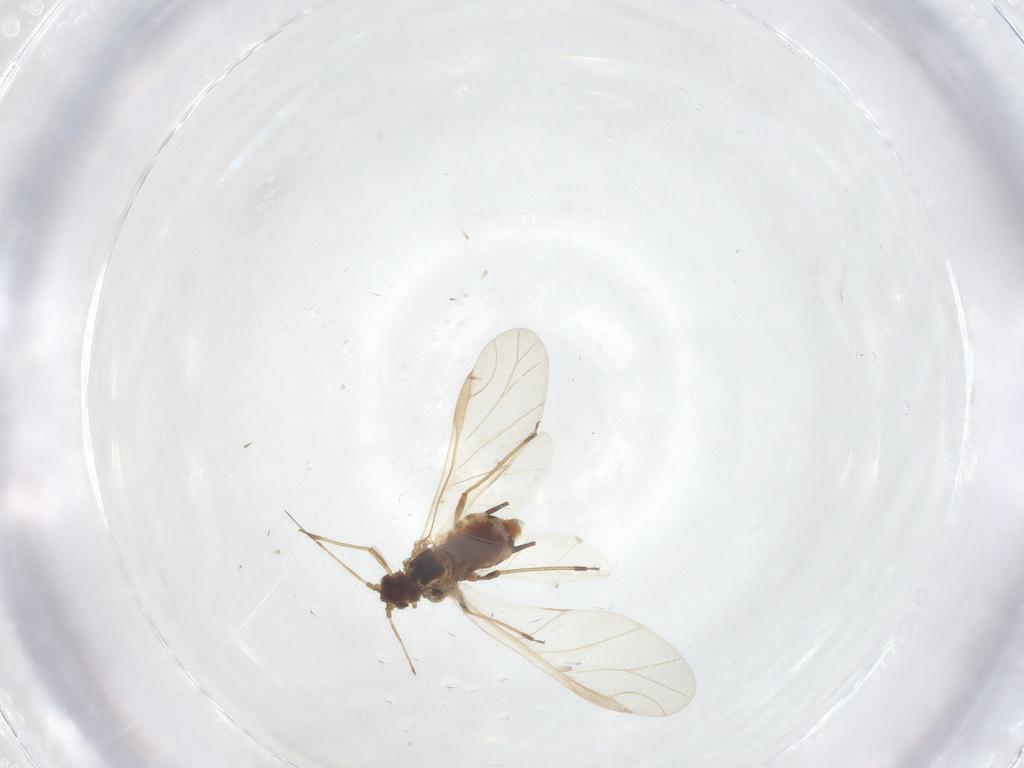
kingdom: Animalia
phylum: Arthropoda
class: Insecta
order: Hemiptera
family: Aphididae
